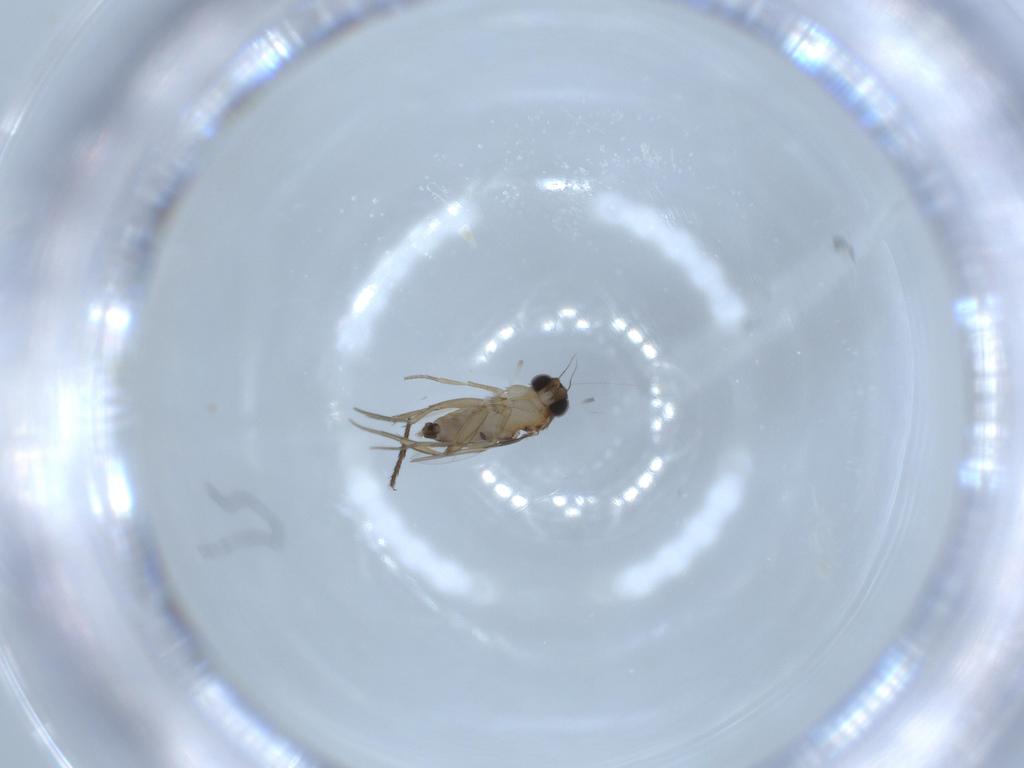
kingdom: Animalia
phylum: Arthropoda
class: Insecta
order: Diptera
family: Phoridae
